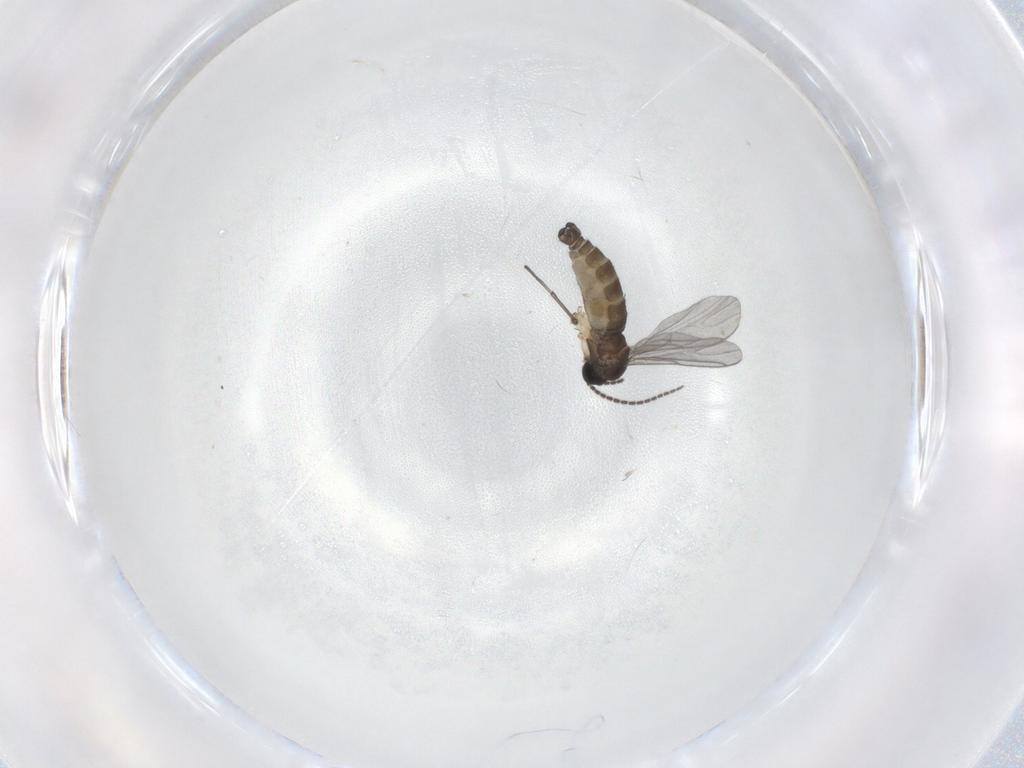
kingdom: Animalia
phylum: Arthropoda
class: Insecta
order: Diptera
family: Sciaridae
